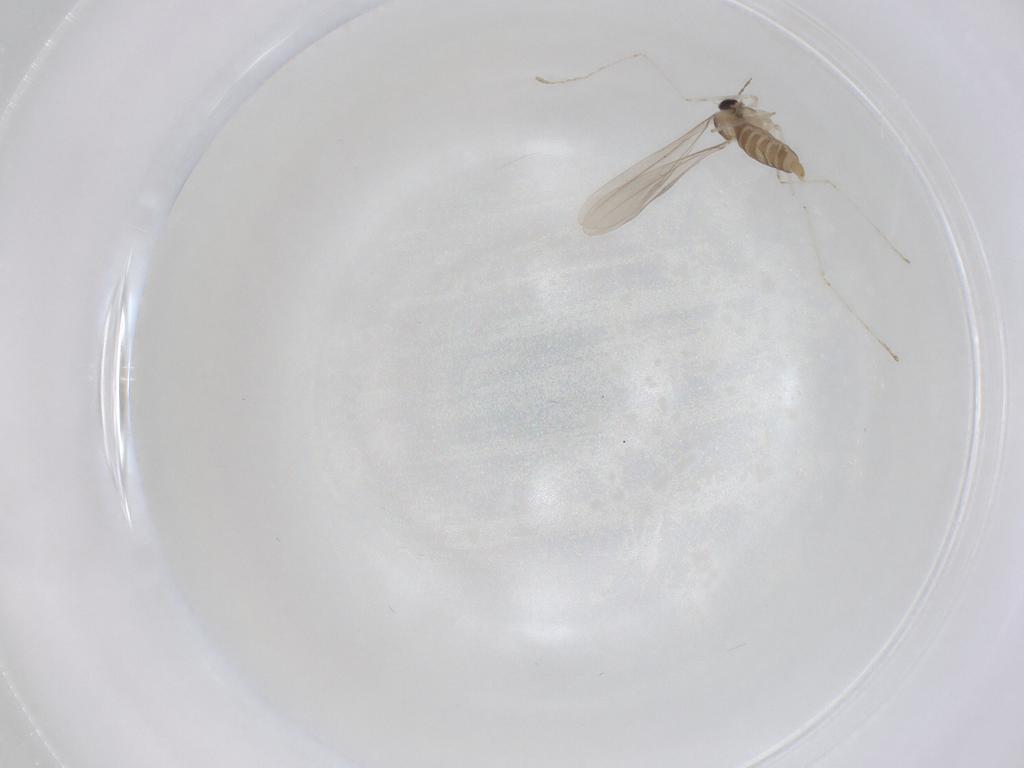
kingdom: Animalia
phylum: Arthropoda
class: Insecta
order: Diptera
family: Cecidomyiidae
